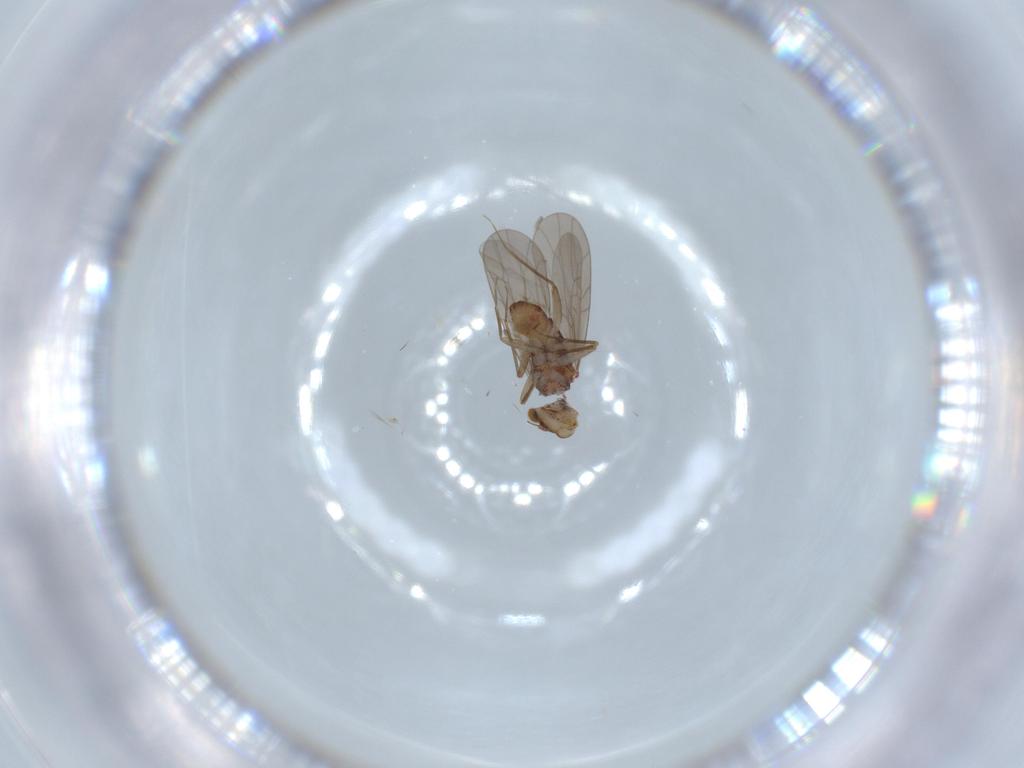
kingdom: Animalia
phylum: Arthropoda
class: Insecta
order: Psocodea
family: Lepidopsocidae
